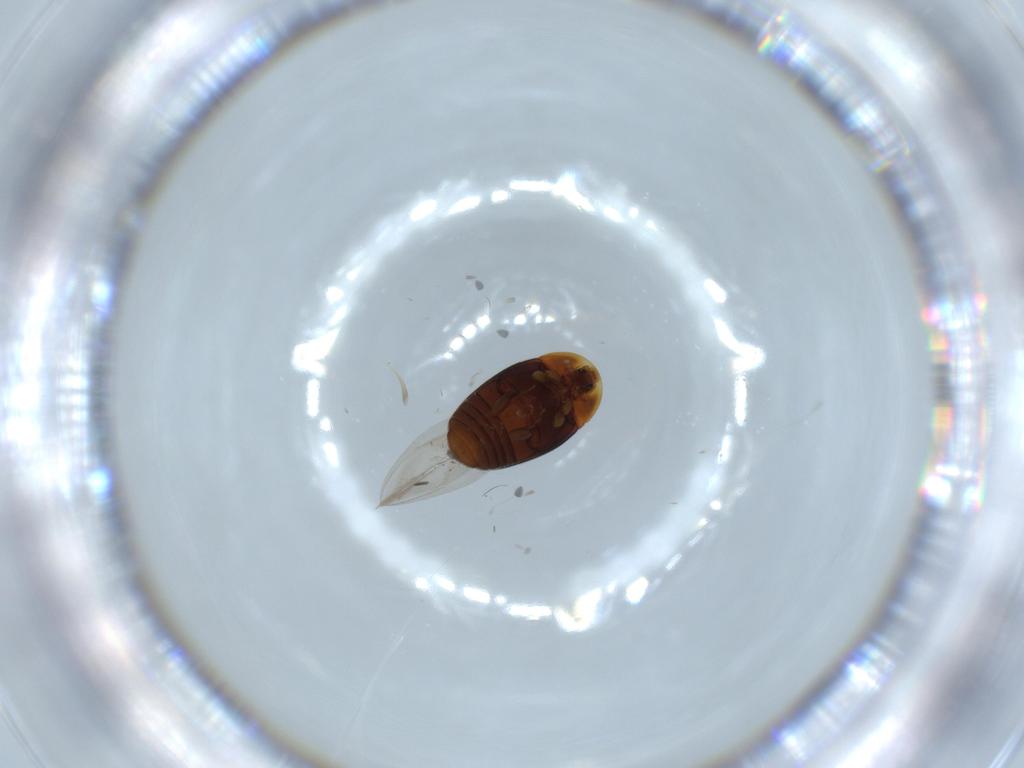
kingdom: Animalia
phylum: Arthropoda
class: Insecta
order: Coleoptera
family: Corylophidae
